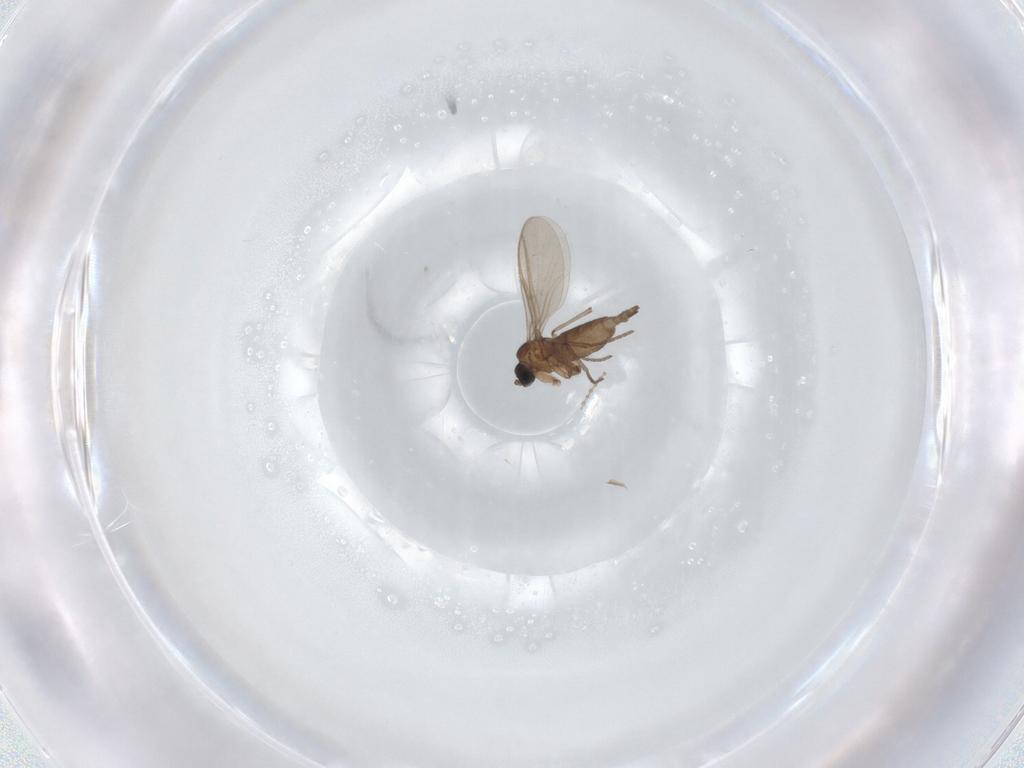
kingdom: Animalia
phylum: Arthropoda
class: Insecta
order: Diptera
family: Sciaridae
